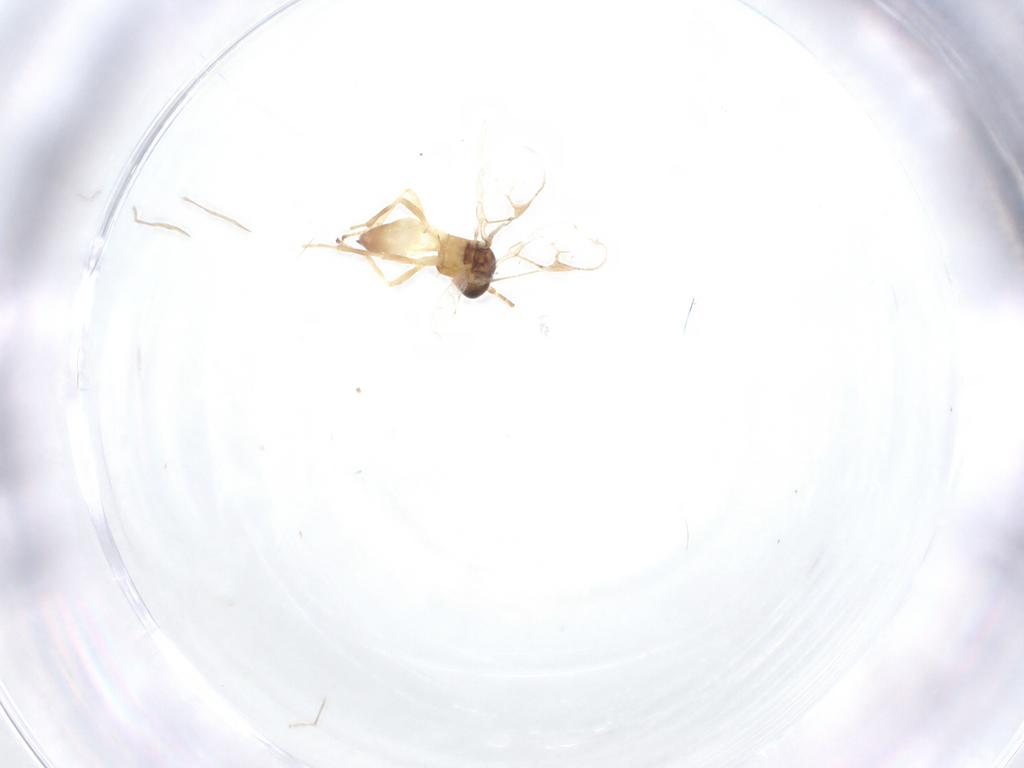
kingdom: Animalia
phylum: Arthropoda
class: Insecta
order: Hymenoptera
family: Braconidae
